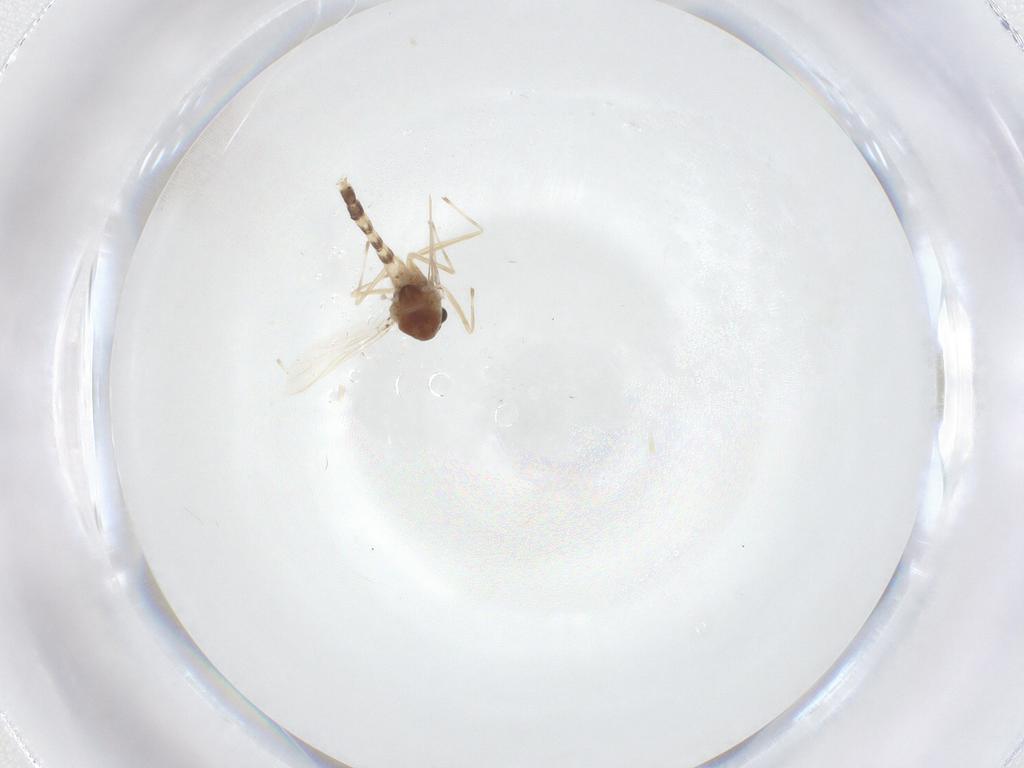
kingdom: Animalia
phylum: Arthropoda
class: Insecta
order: Diptera
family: Chironomidae
